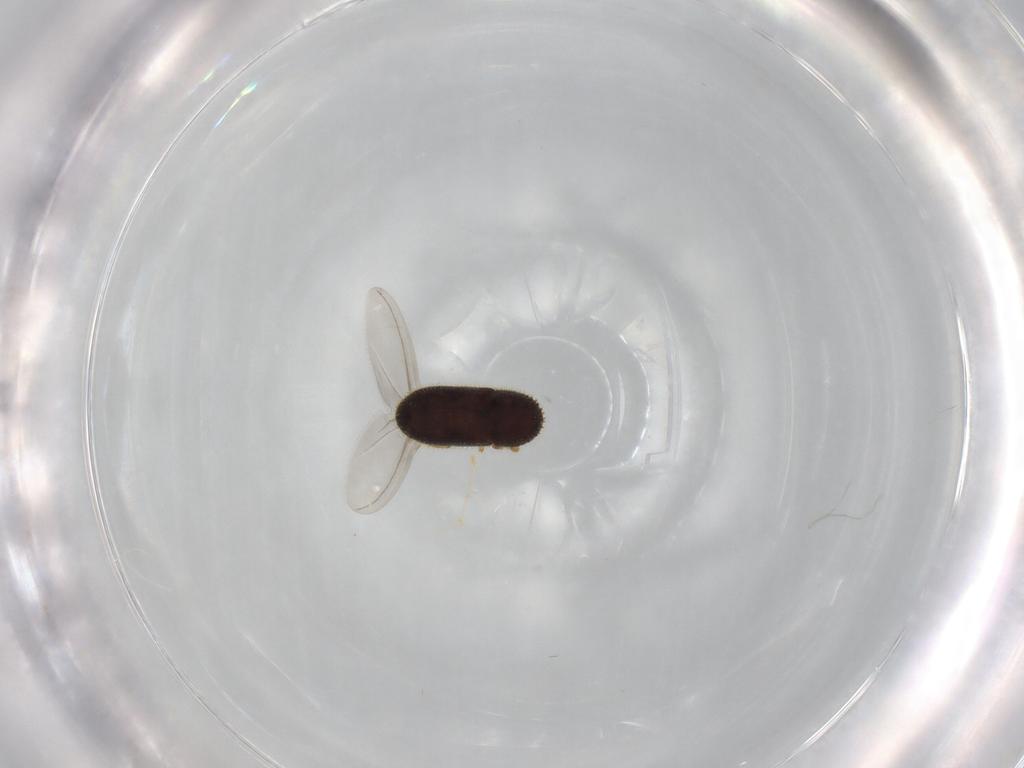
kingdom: Animalia
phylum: Arthropoda
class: Insecta
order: Coleoptera
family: Curculionidae
